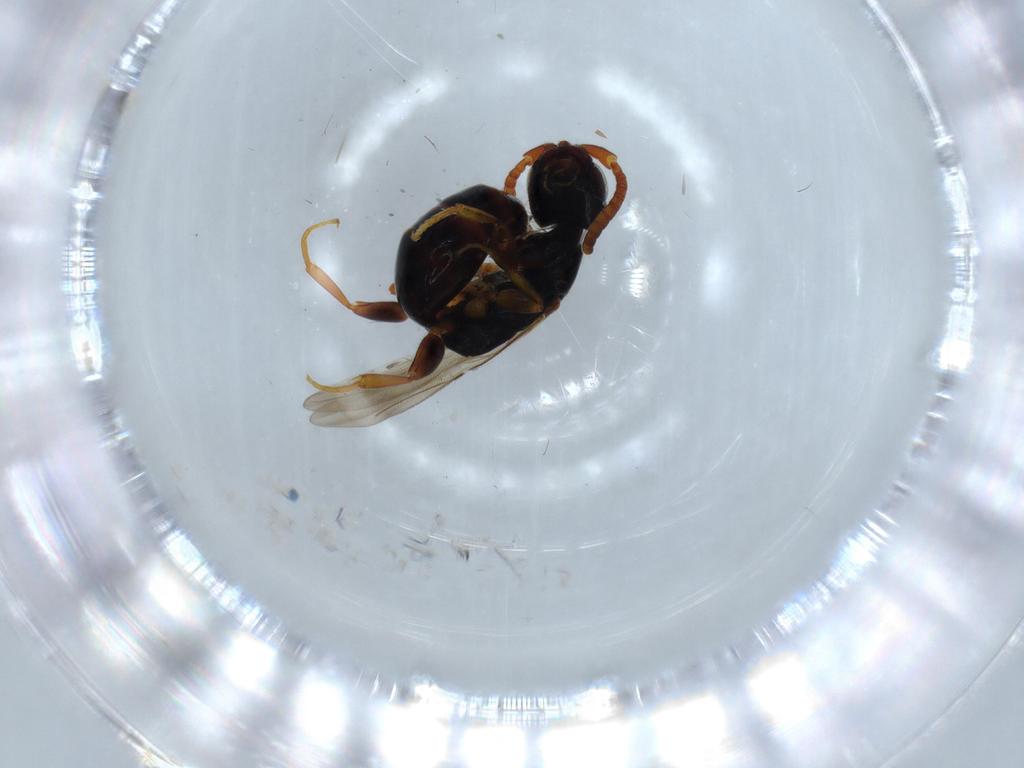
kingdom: Animalia
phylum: Arthropoda
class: Insecta
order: Hymenoptera
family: Bethylidae
